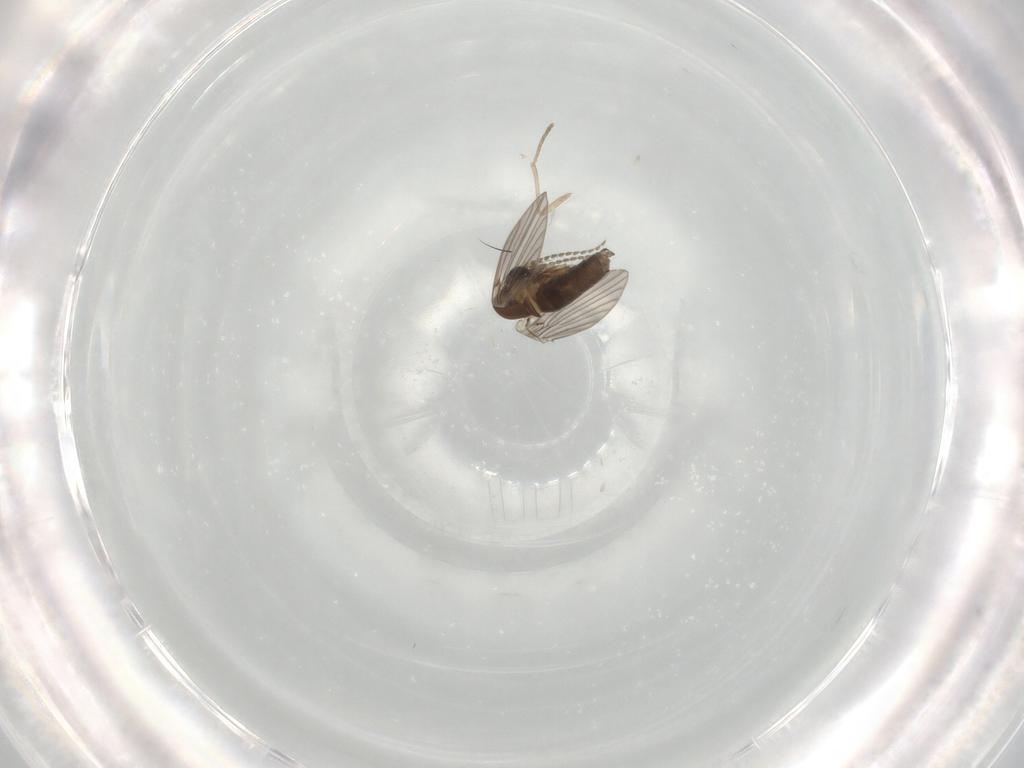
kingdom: Animalia
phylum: Arthropoda
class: Insecta
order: Diptera
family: Cecidomyiidae
